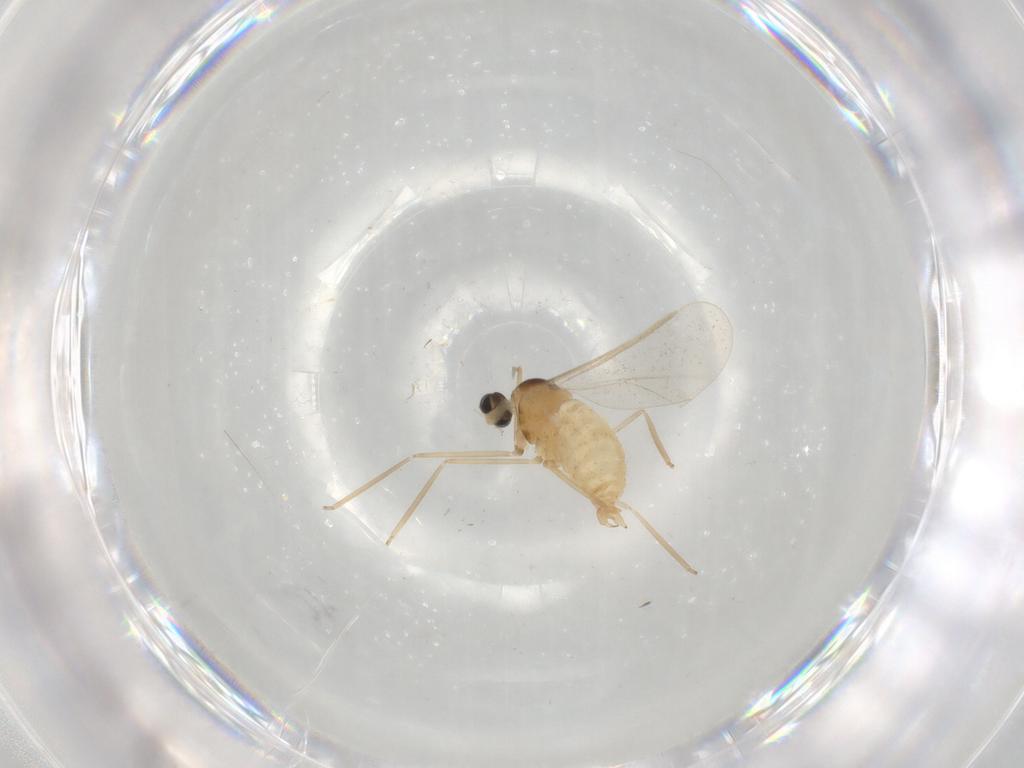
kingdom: Animalia
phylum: Arthropoda
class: Insecta
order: Diptera
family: Cecidomyiidae
